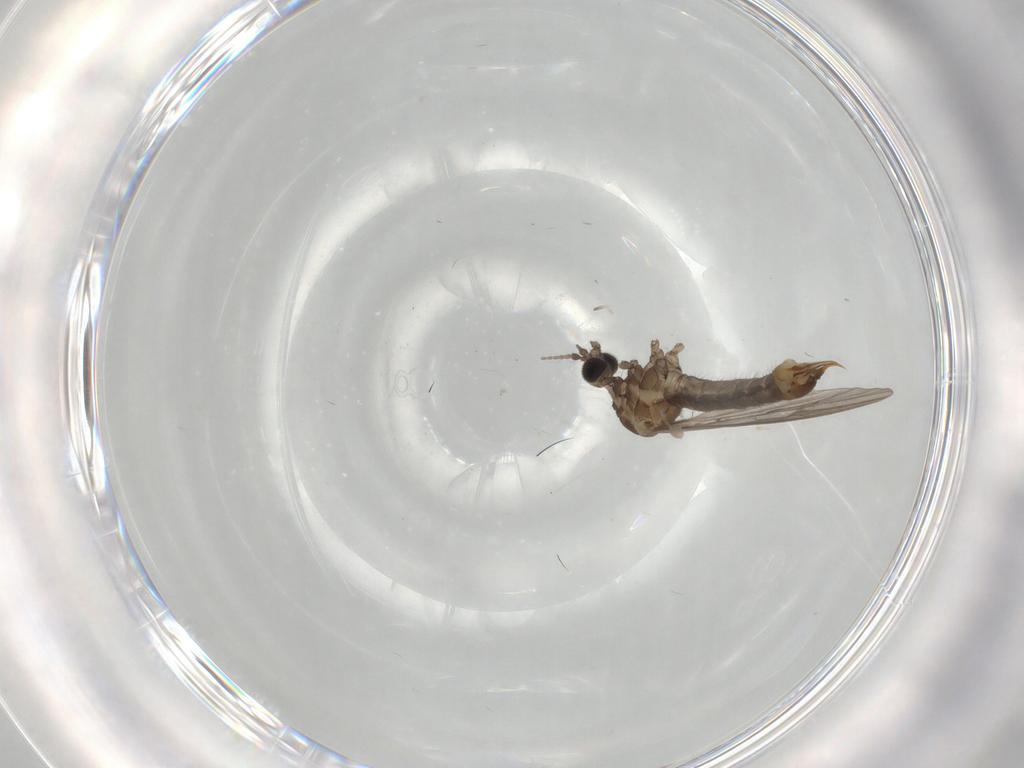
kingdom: Animalia
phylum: Arthropoda
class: Insecta
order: Diptera
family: Limoniidae
